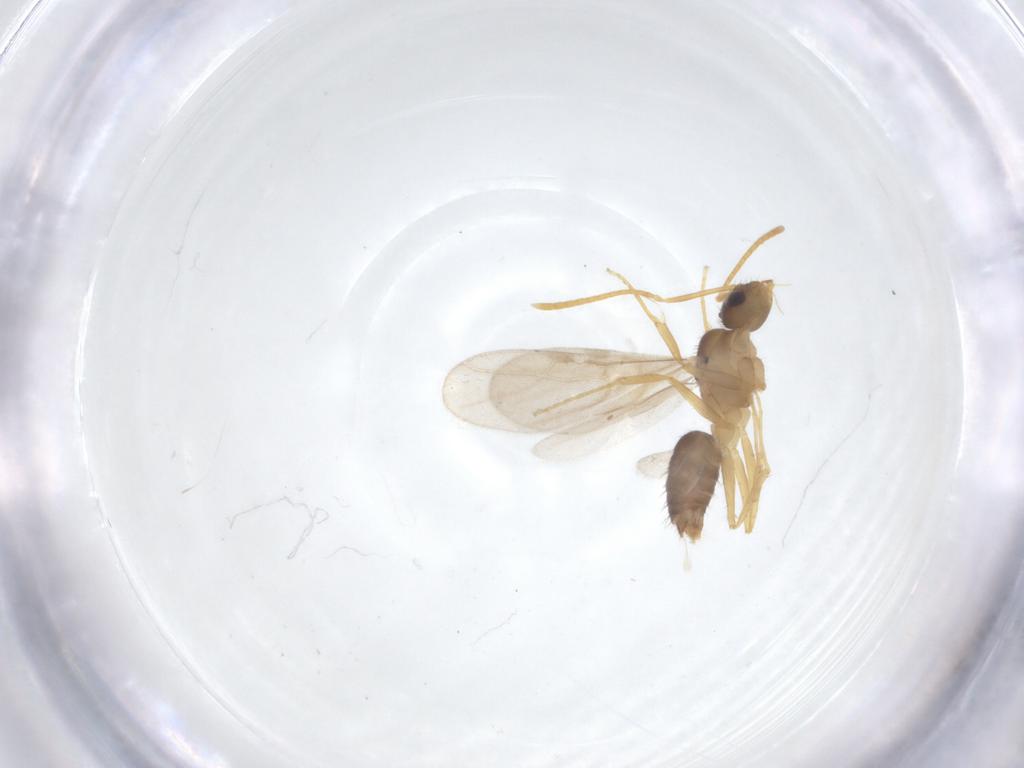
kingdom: Animalia
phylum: Arthropoda
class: Insecta
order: Hymenoptera
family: Formicidae
